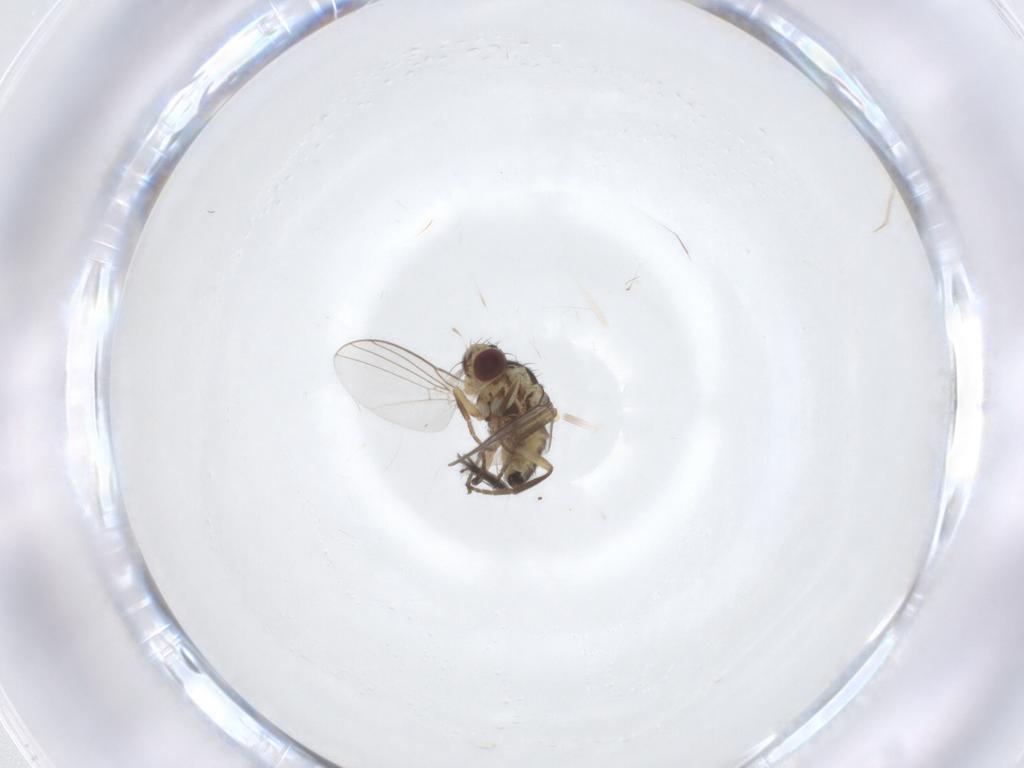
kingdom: Animalia
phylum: Arthropoda
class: Insecta
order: Diptera
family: Agromyzidae
